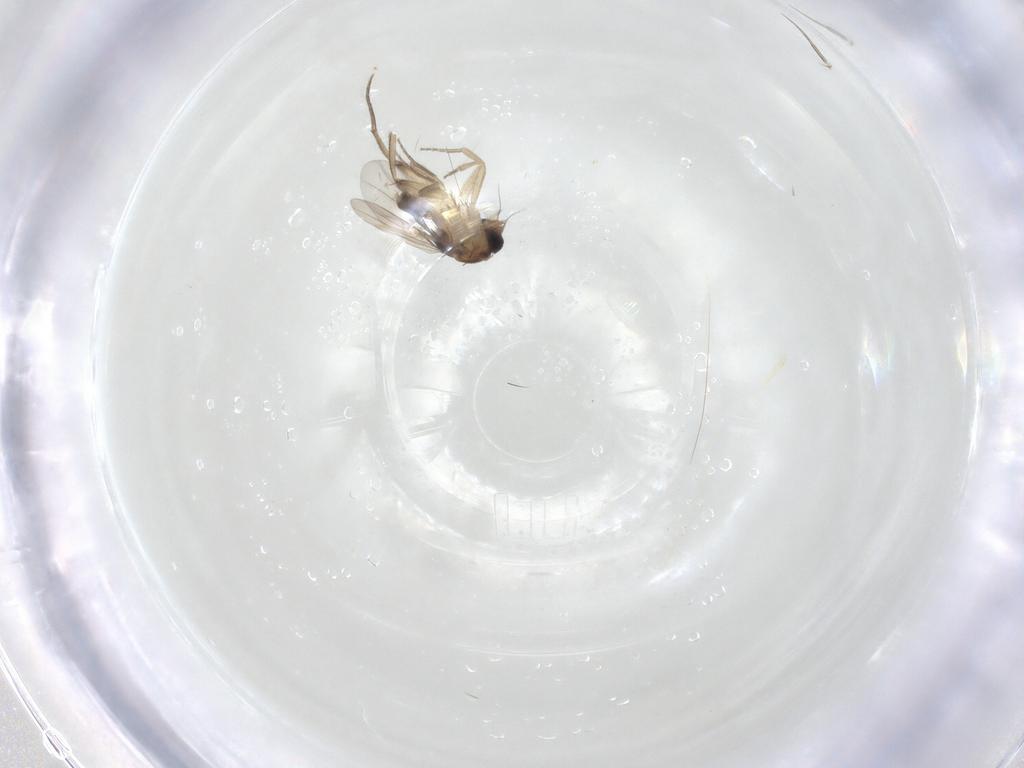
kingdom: Animalia
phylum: Arthropoda
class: Insecta
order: Diptera
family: Phoridae
